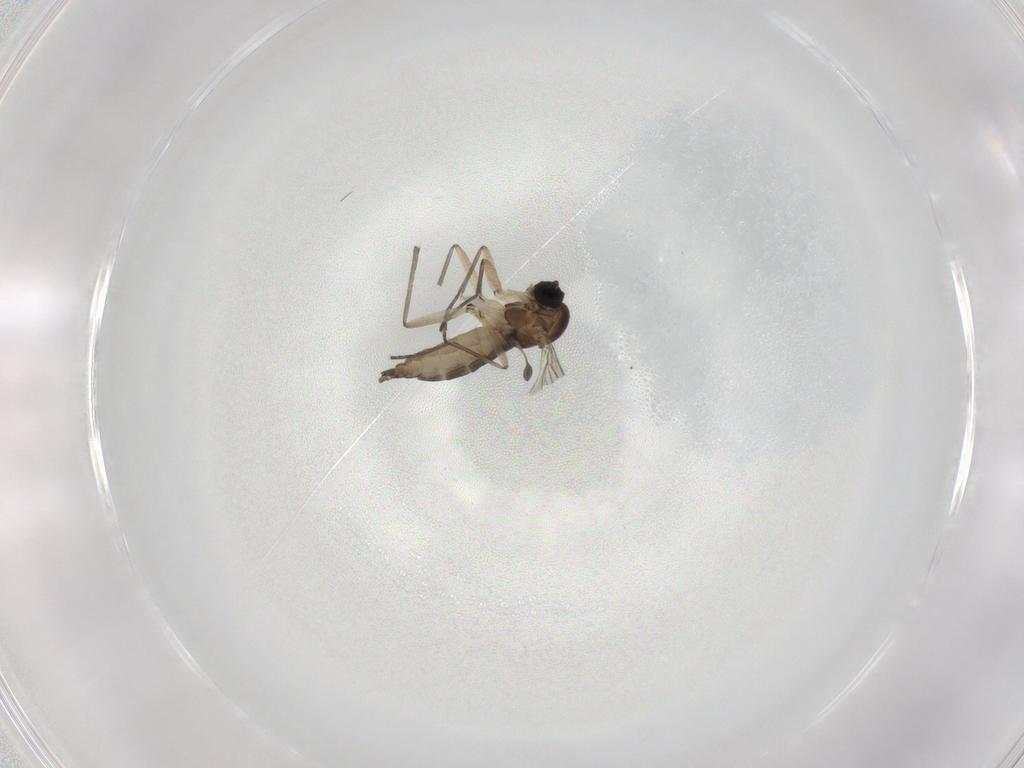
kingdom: Animalia
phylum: Arthropoda
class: Insecta
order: Diptera
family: Sciaridae
